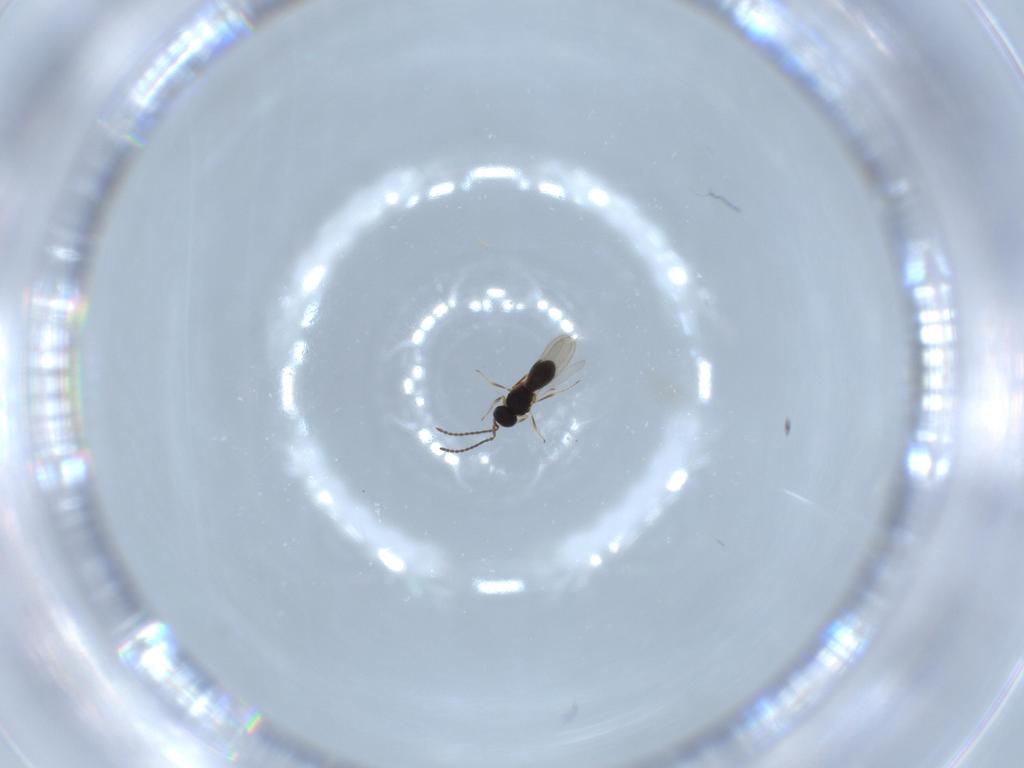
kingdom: Animalia
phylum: Arthropoda
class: Insecta
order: Hymenoptera
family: Scelionidae
